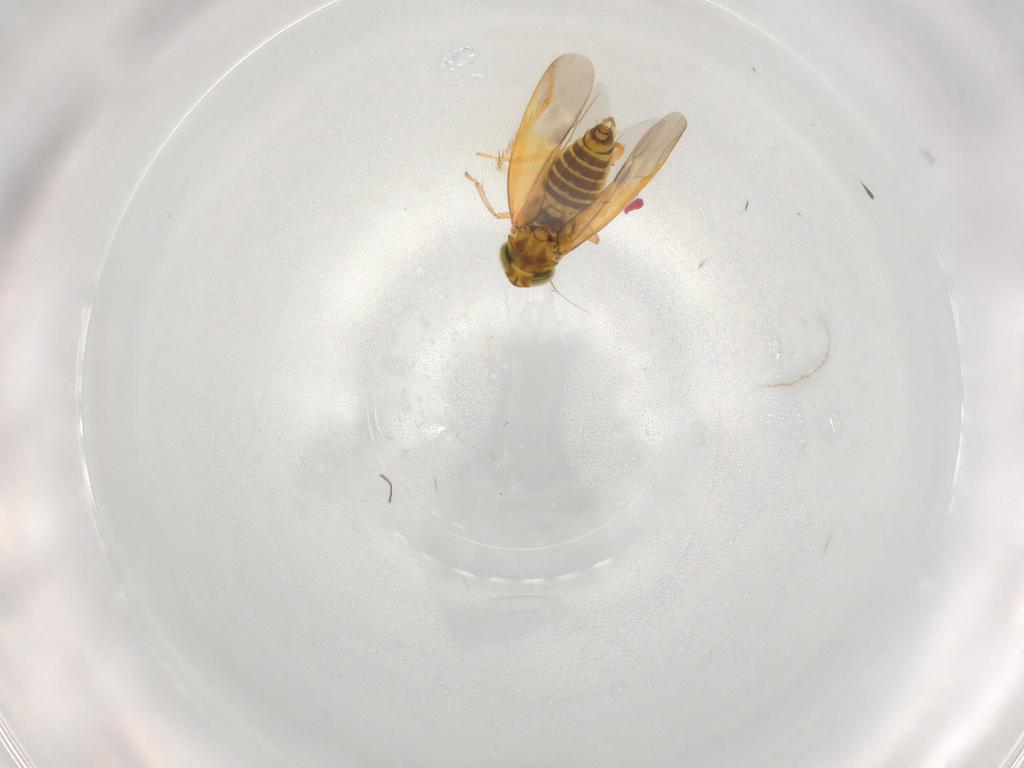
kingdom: Animalia
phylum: Arthropoda
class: Insecta
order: Hemiptera
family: Cicadellidae
